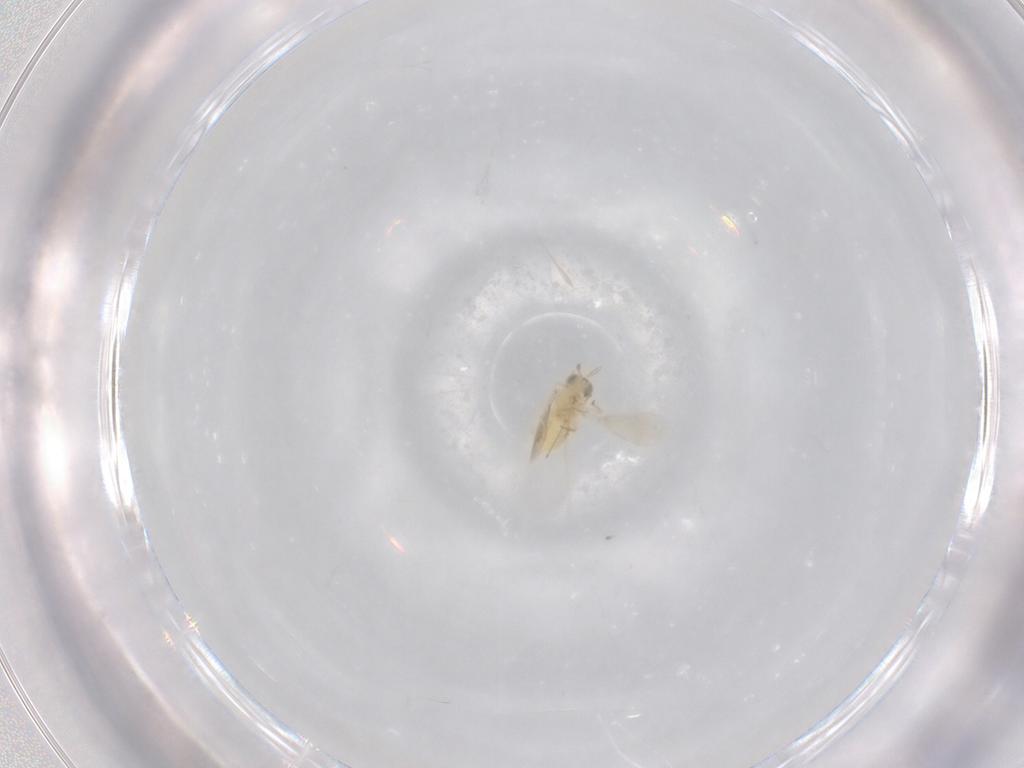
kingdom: Animalia
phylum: Arthropoda
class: Insecta
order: Hymenoptera
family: Aphelinidae
